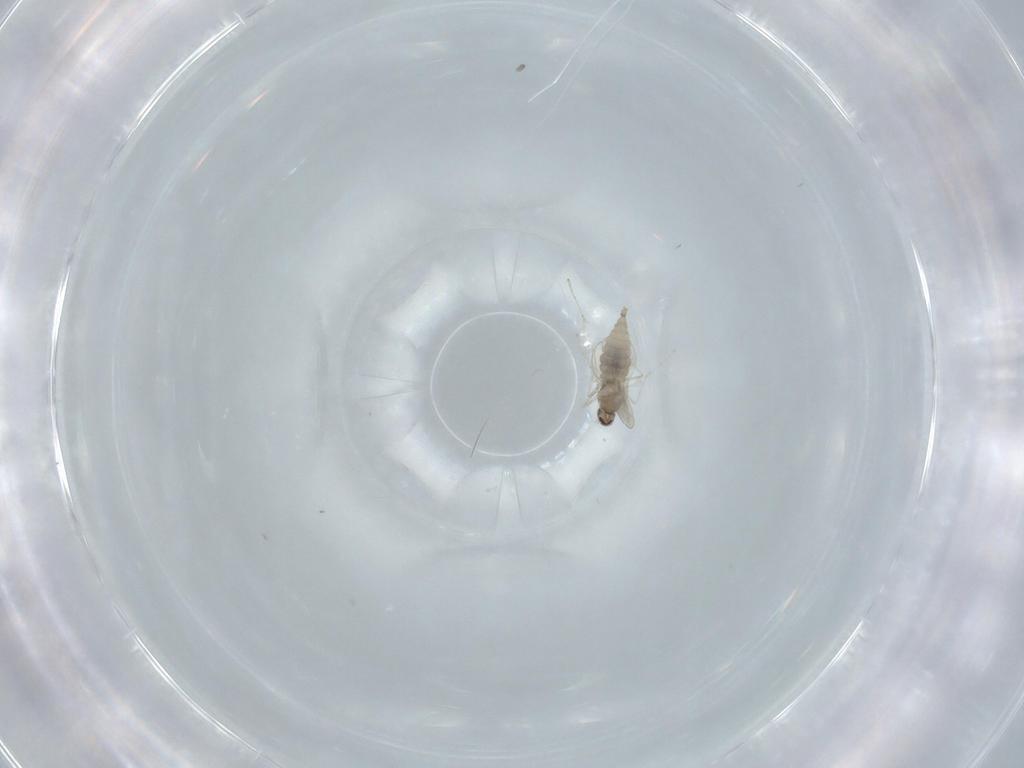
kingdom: Animalia
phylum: Arthropoda
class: Insecta
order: Diptera
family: Cecidomyiidae
